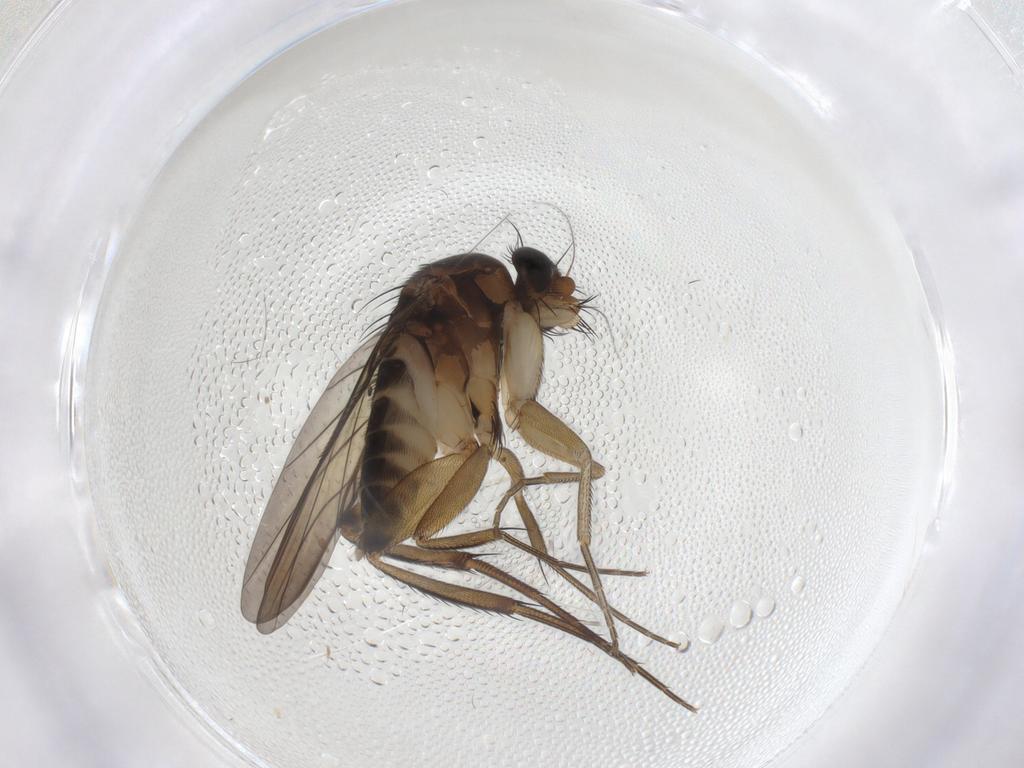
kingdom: Animalia
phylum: Arthropoda
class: Insecta
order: Diptera
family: Phoridae
